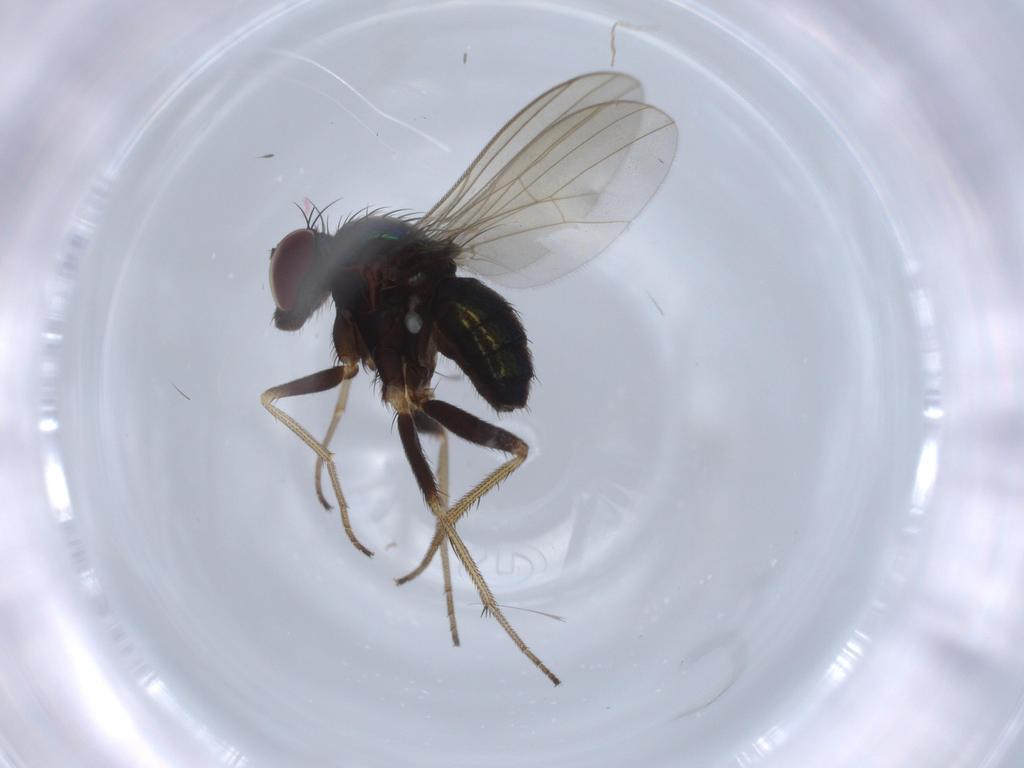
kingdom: Animalia
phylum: Arthropoda
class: Insecta
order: Diptera
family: Dolichopodidae
